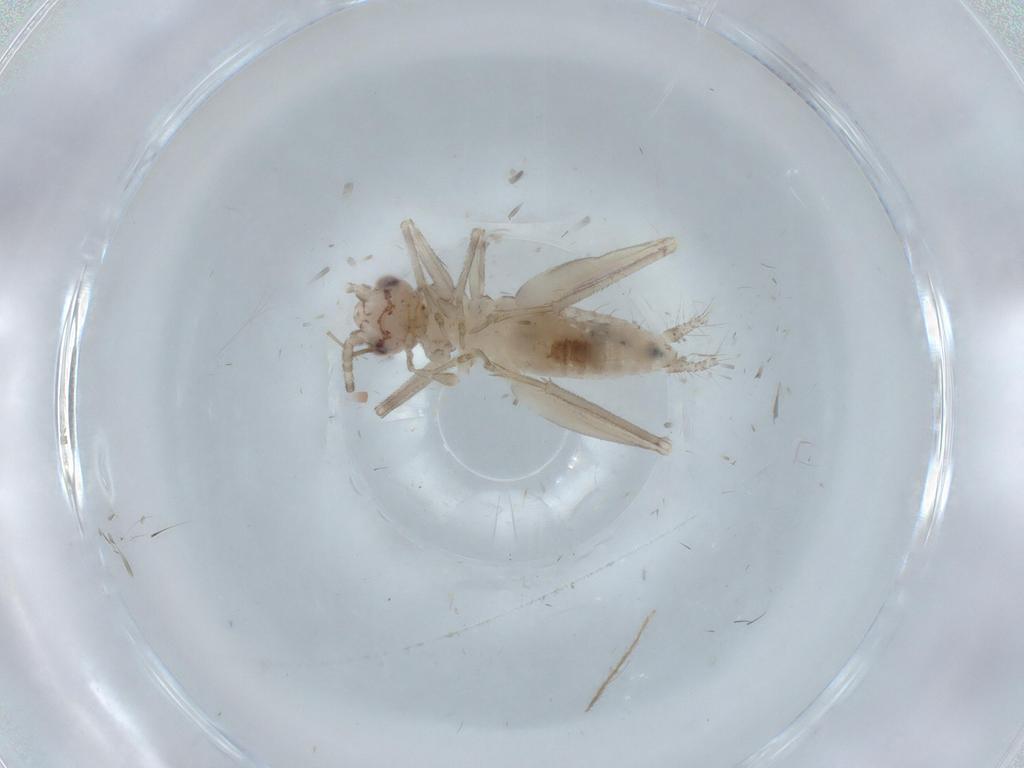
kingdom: Animalia
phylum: Arthropoda
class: Insecta
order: Orthoptera
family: Trigonidiidae
